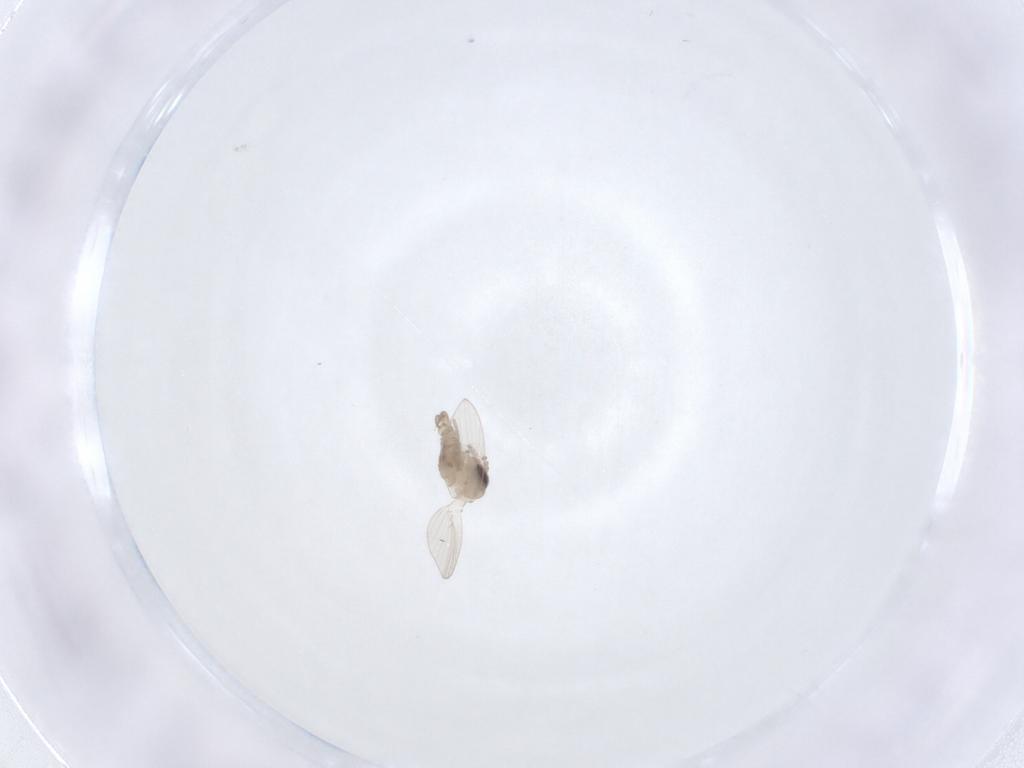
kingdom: Animalia
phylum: Arthropoda
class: Insecta
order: Diptera
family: Psychodidae
